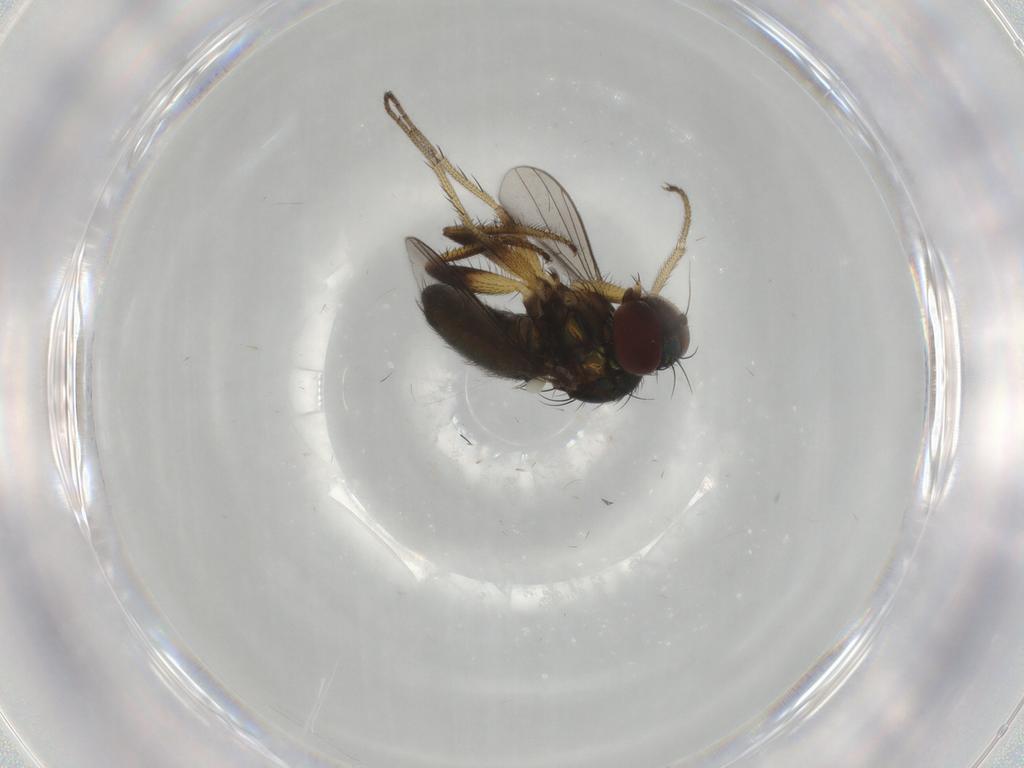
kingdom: Animalia
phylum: Arthropoda
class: Insecta
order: Diptera
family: Dolichopodidae
